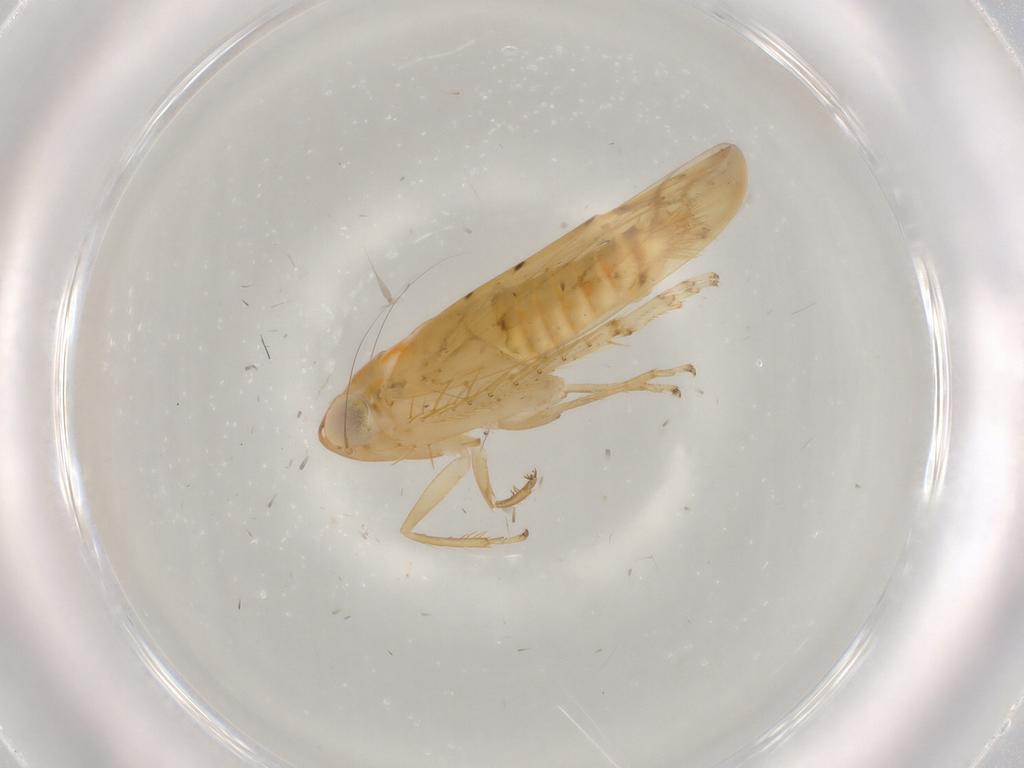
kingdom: Animalia
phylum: Arthropoda
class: Insecta
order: Hemiptera
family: Cicadellidae
